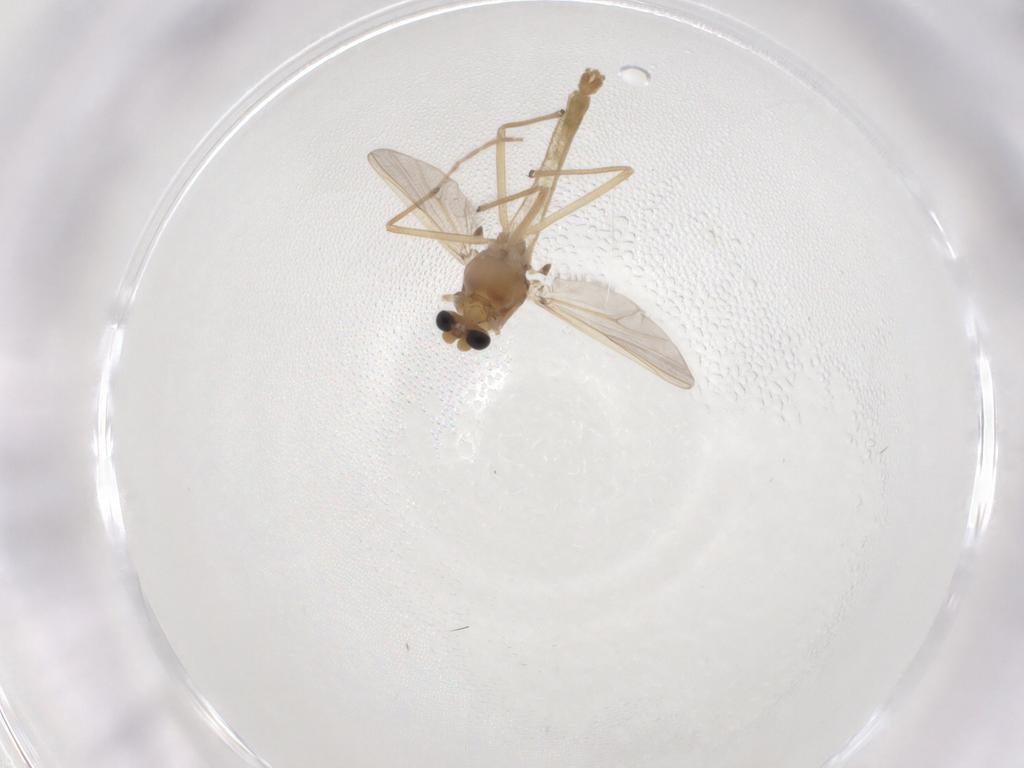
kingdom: Animalia
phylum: Arthropoda
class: Insecta
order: Diptera
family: Chironomidae
